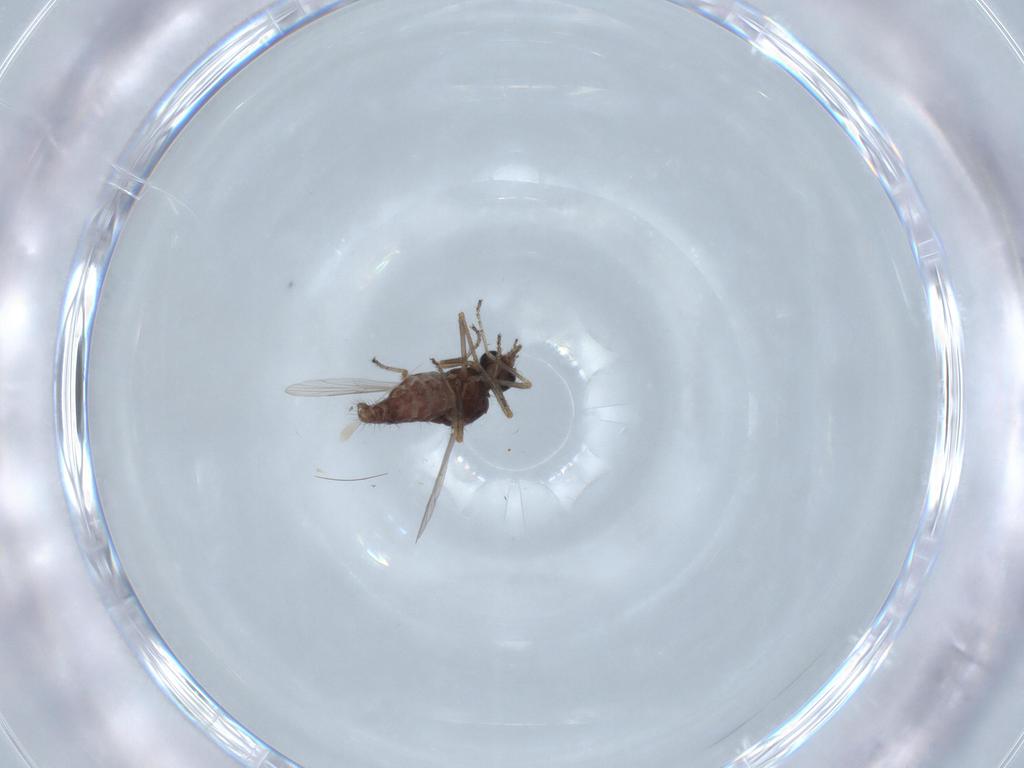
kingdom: Animalia
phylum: Arthropoda
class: Insecta
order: Diptera
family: Ceratopogonidae
